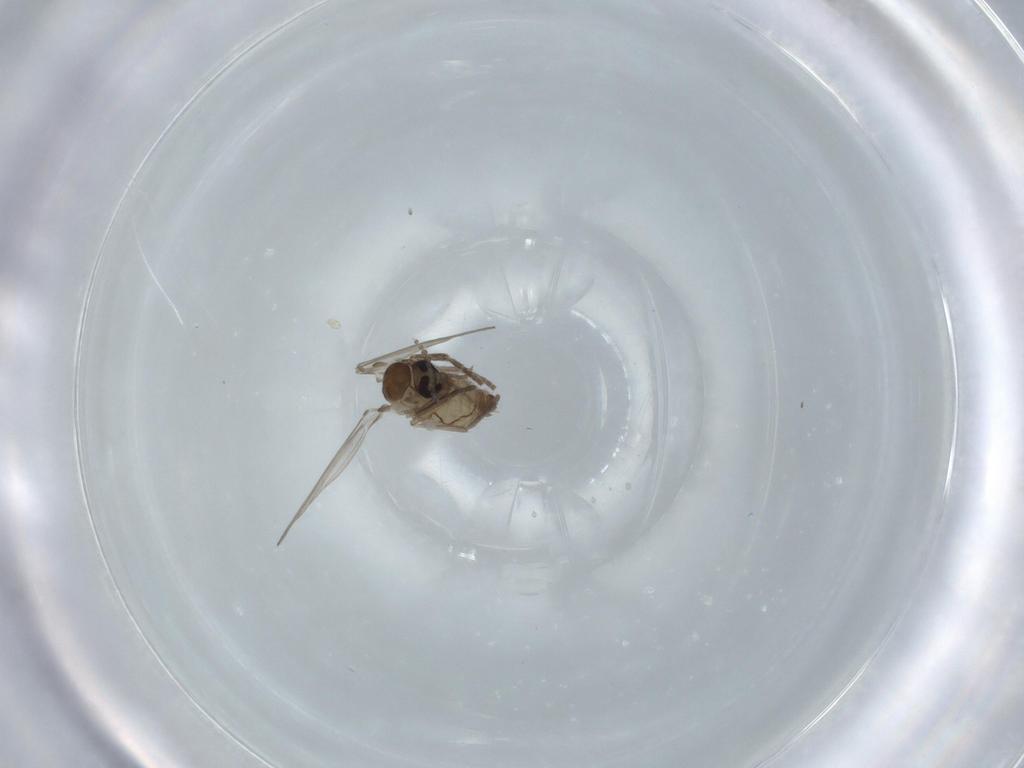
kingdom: Animalia
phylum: Arthropoda
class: Insecta
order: Diptera
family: Psychodidae
